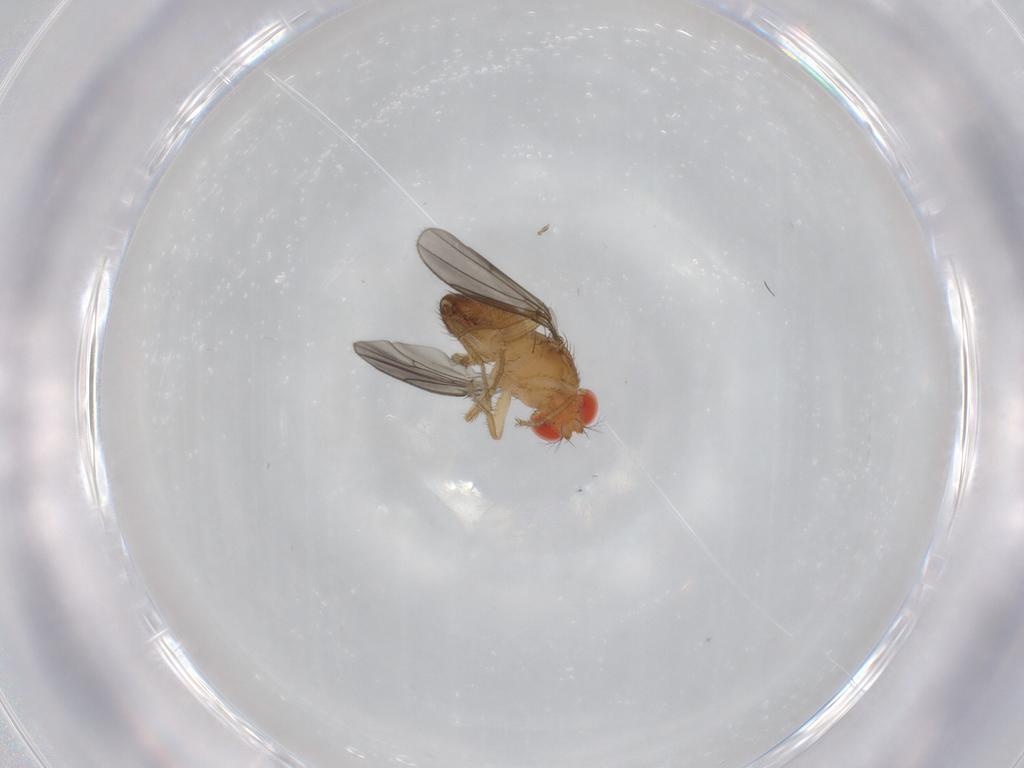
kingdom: Animalia
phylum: Arthropoda
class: Insecta
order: Diptera
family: Drosophilidae
